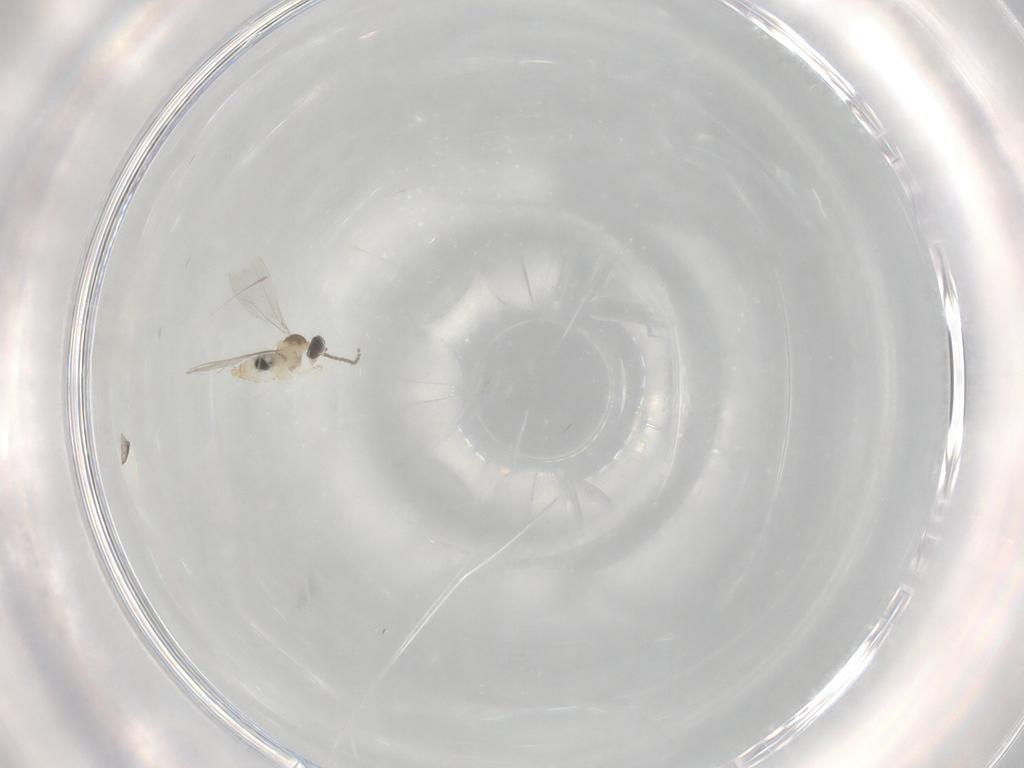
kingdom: Animalia
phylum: Arthropoda
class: Insecta
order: Diptera
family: Cecidomyiidae
